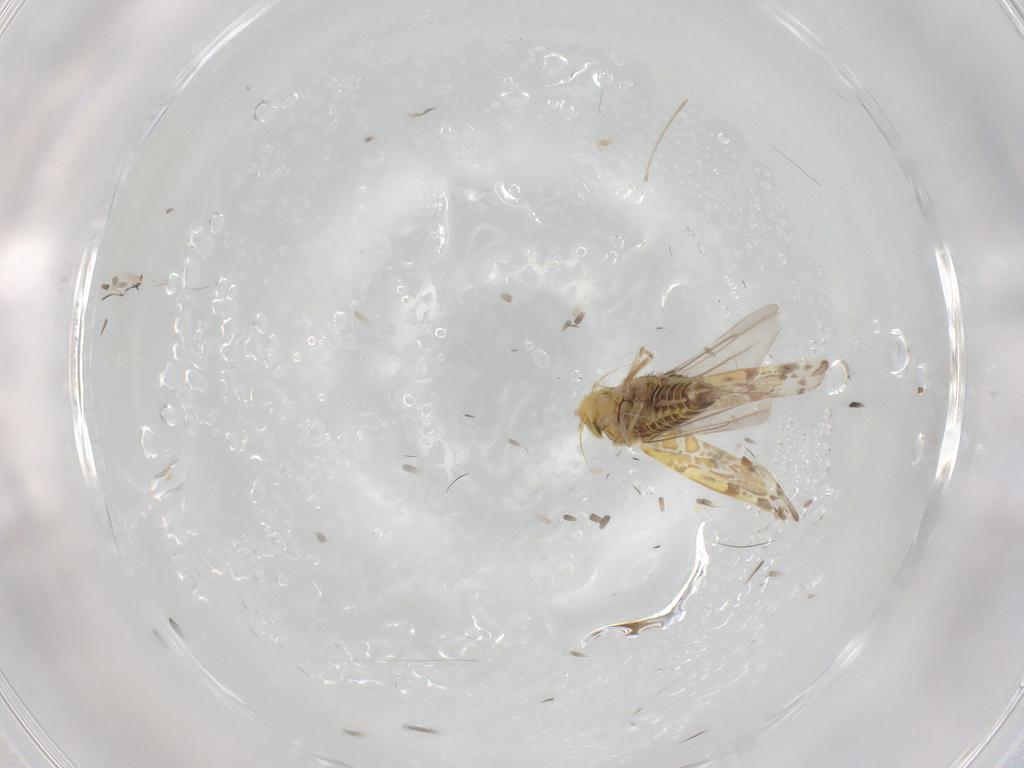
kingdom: Animalia
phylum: Arthropoda
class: Insecta
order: Hemiptera
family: Cicadellidae
